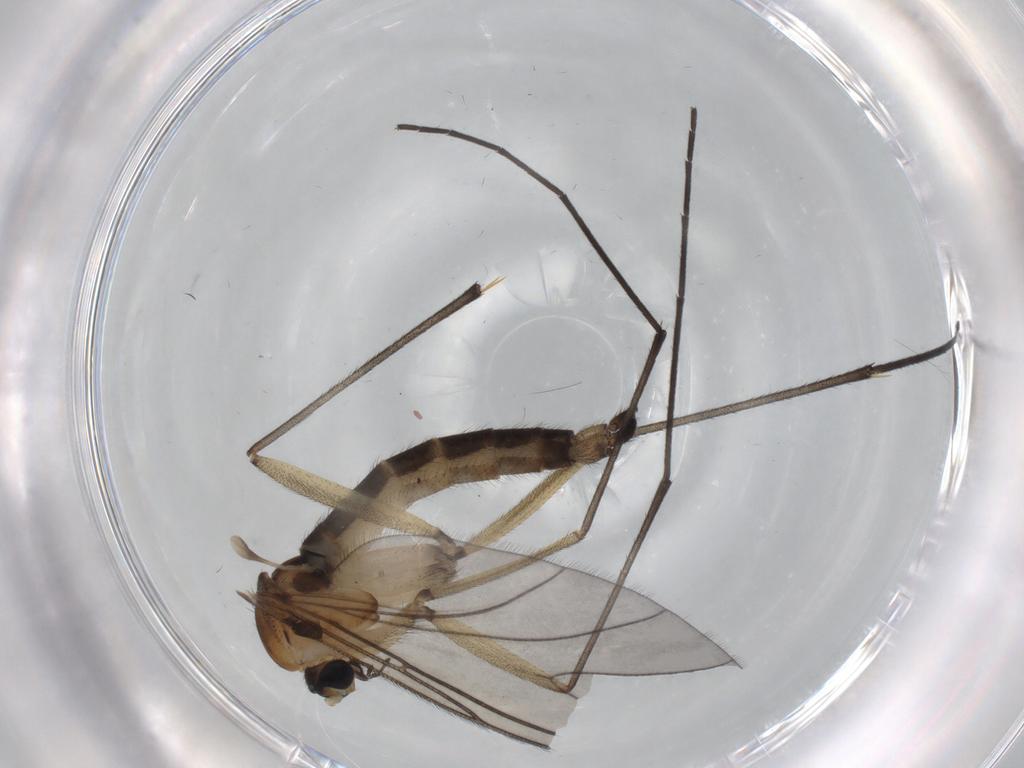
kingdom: Animalia
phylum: Arthropoda
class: Insecta
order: Diptera
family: Sciaridae
